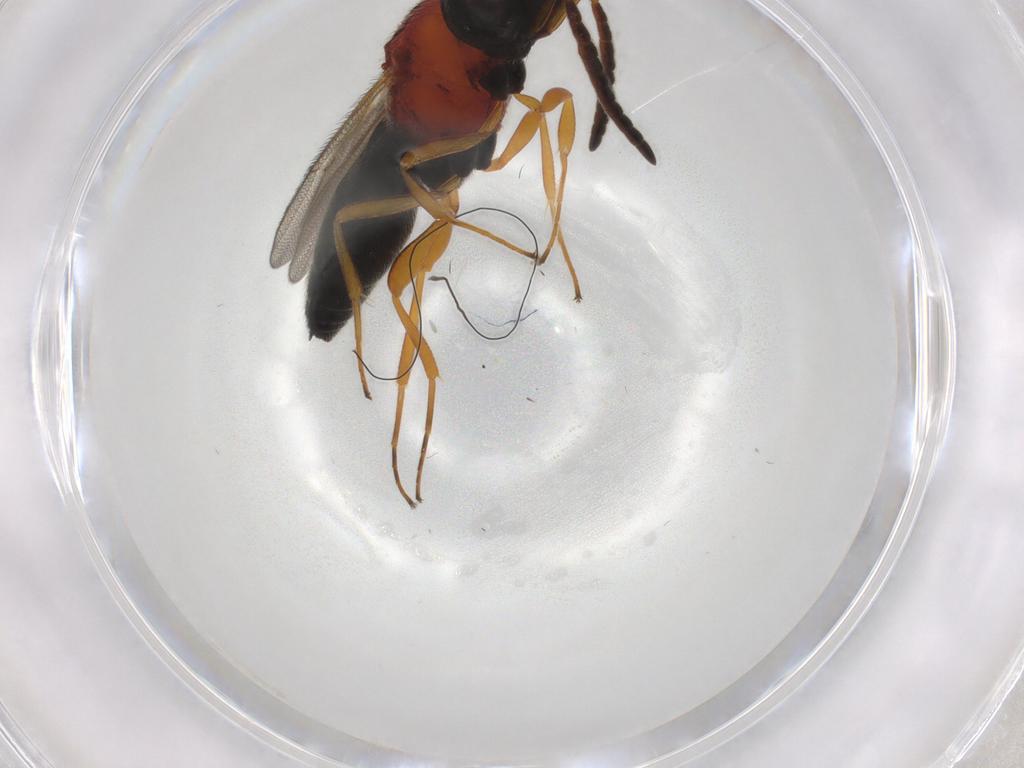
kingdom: Animalia
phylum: Arthropoda
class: Insecta
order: Hymenoptera
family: Scelionidae
